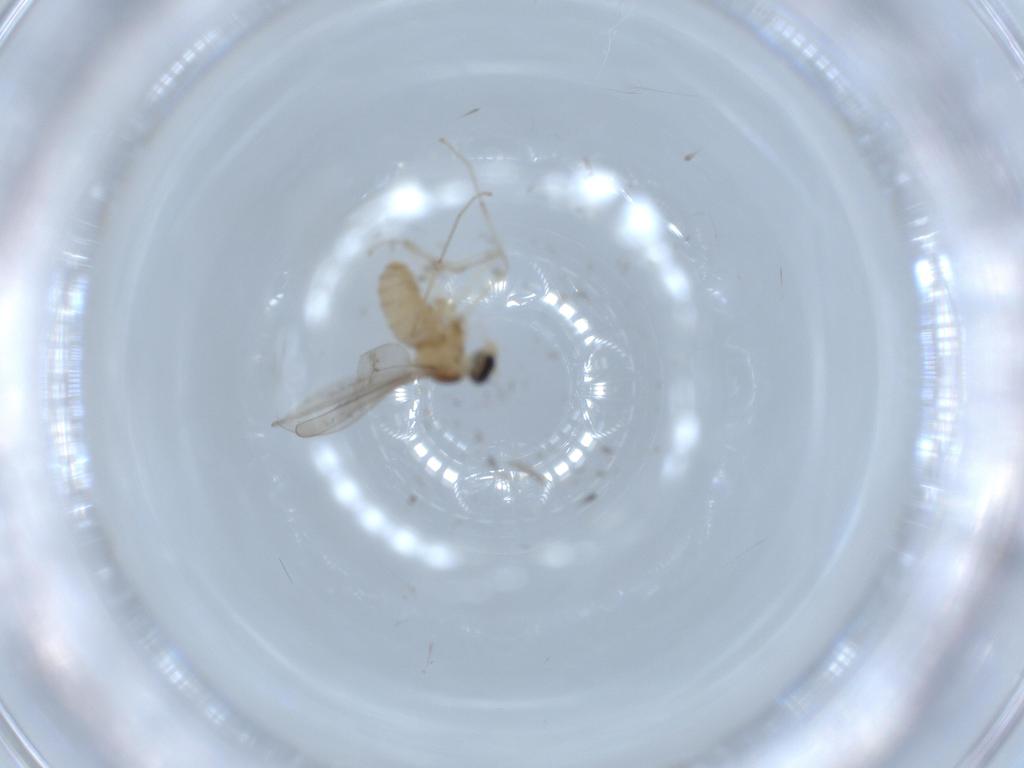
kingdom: Animalia
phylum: Arthropoda
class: Insecta
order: Diptera
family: Cecidomyiidae
